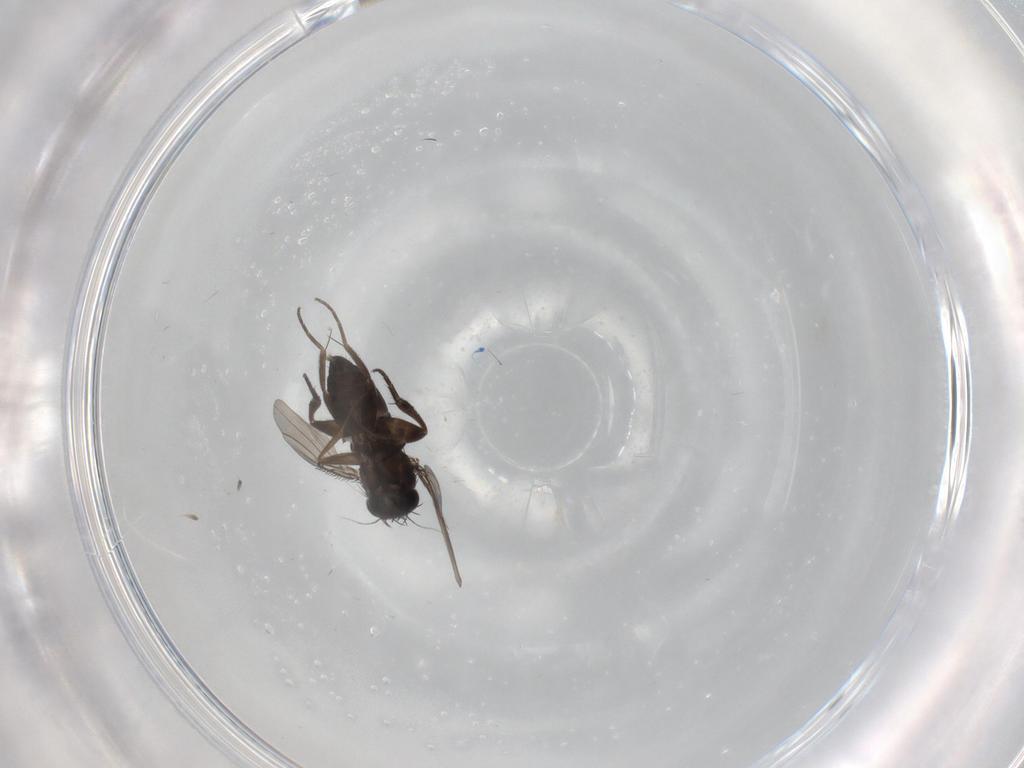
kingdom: Animalia
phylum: Arthropoda
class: Insecta
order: Diptera
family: Phoridae
